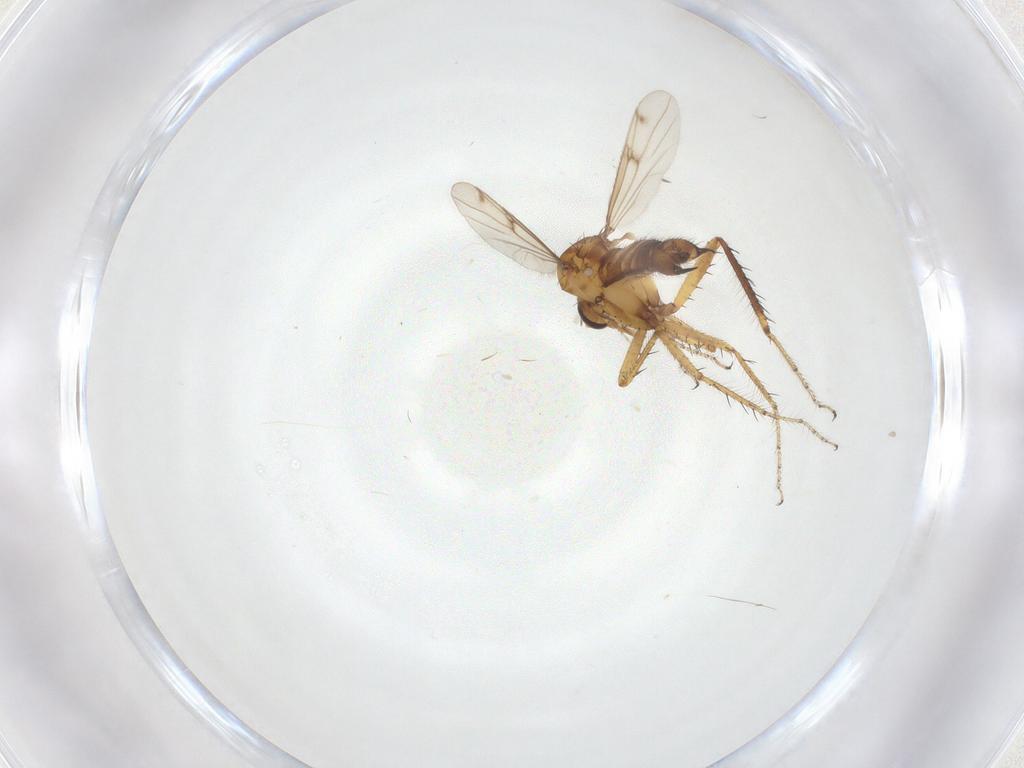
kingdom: Animalia
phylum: Arthropoda
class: Insecta
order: Diptera
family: Ceratopogonidae
